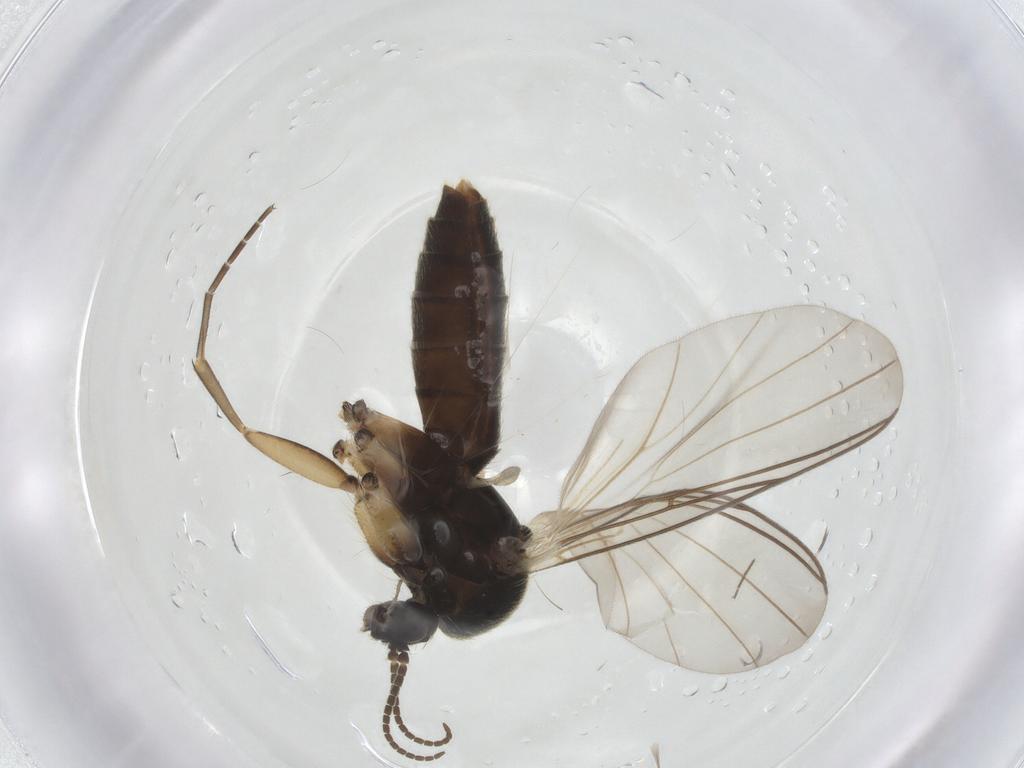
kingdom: Animalia
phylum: Arthropoda
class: Insecta
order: Diptera
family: Mycetophilidae
